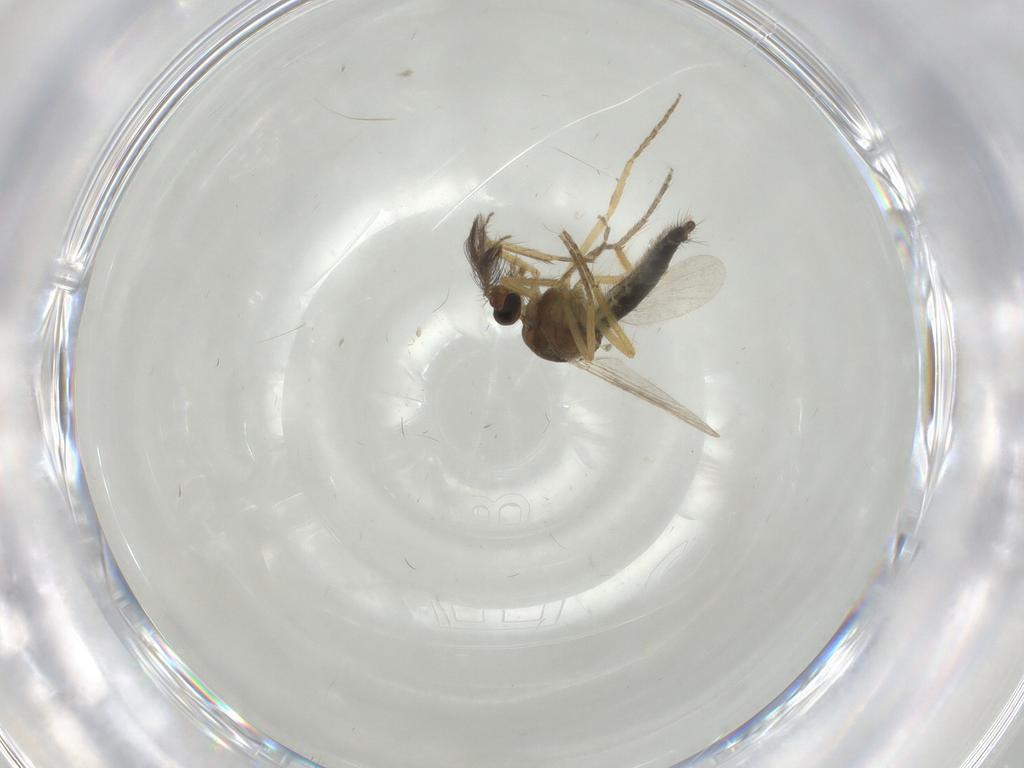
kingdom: Animalia
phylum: Arthropoda
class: Insecta
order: Diptera
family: Ceratopogonidae
